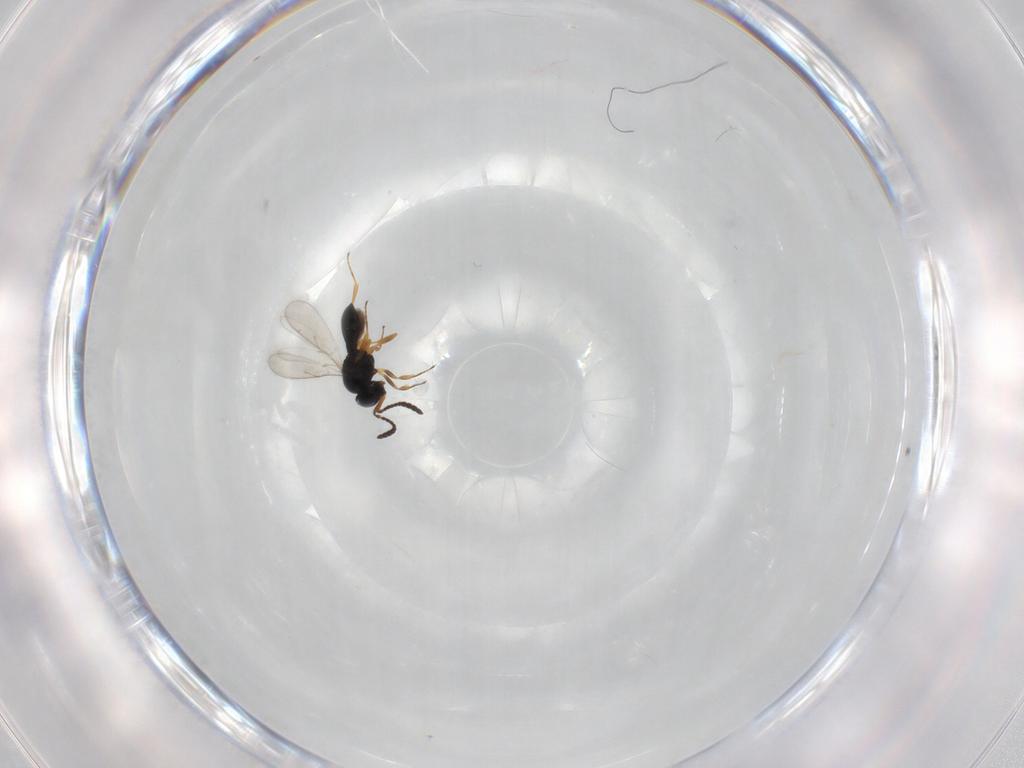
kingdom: Animalia
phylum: Arthropoda
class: Insecta
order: Hymenoptera
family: Scelionidae
